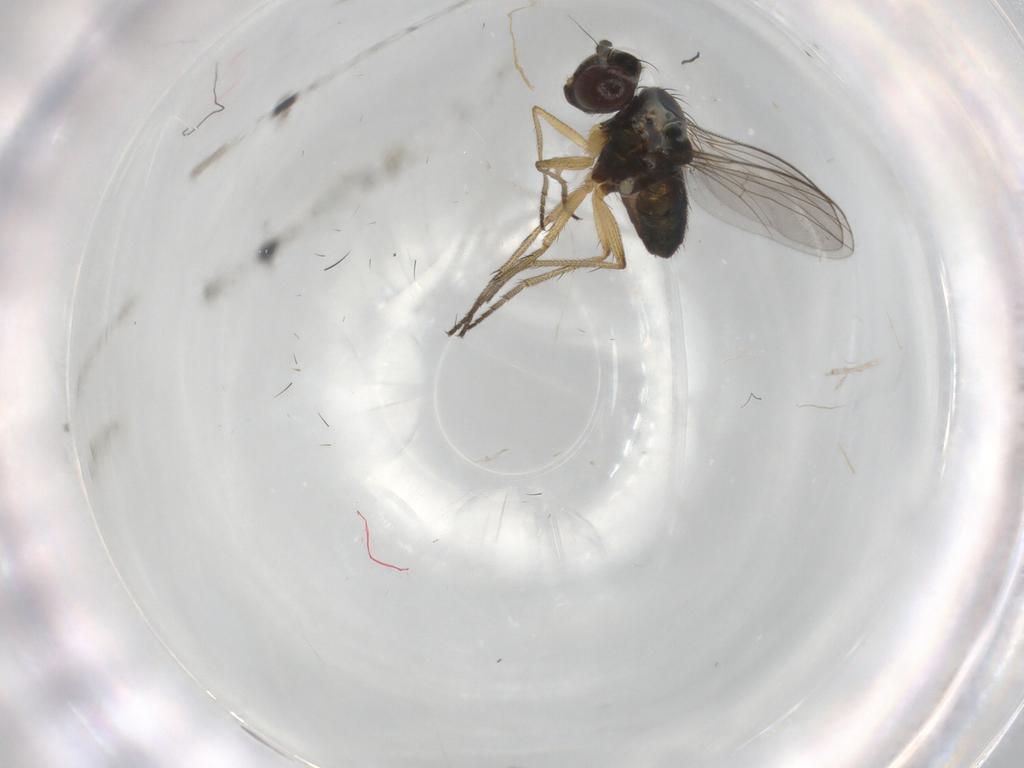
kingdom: Animalia
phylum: Arthropoda
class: Insecta
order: Diptera
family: Dolichopodidae
